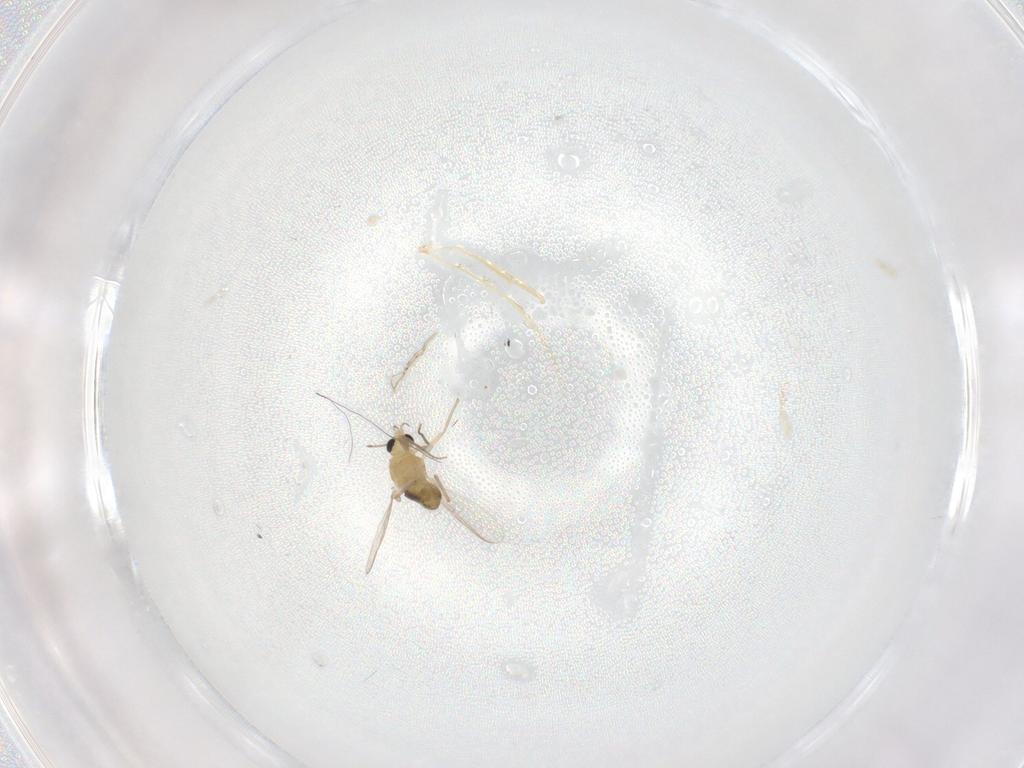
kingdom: Animalia
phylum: Arthropoda
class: Insecta
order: Diptera
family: Chironomidae
